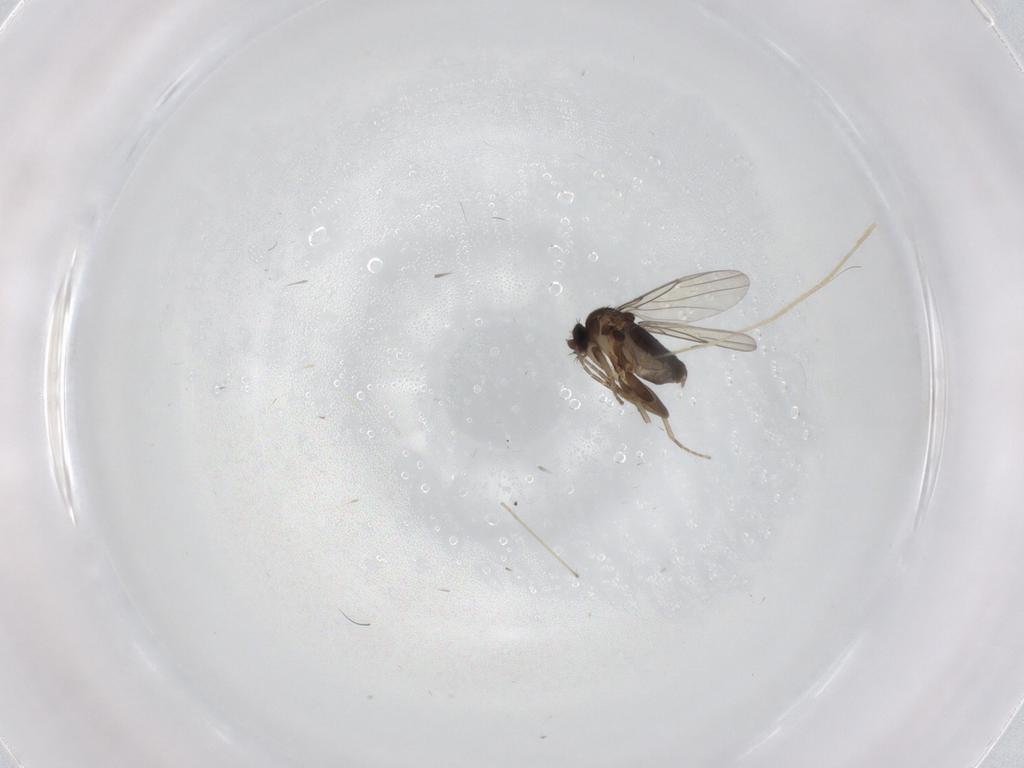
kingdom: Animalia
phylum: Arthropoda
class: Insecta
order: Diptera
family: Phoridae
